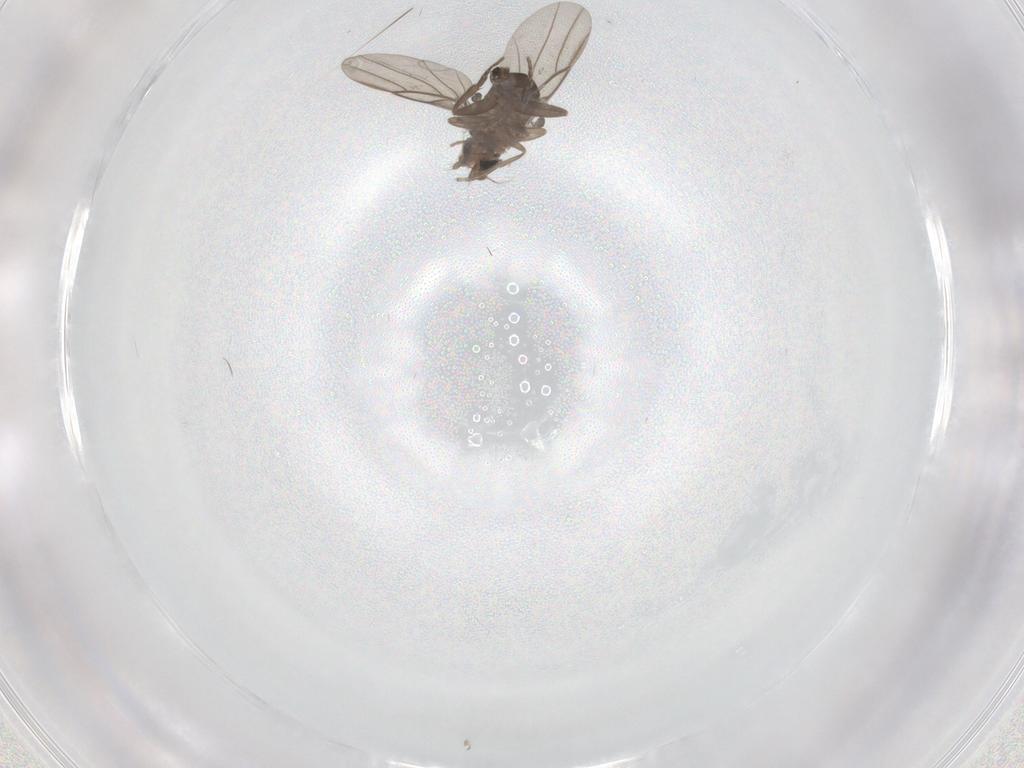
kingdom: Animalia
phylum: Arthropoda
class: Insecta
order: Diptera
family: Phoridae
